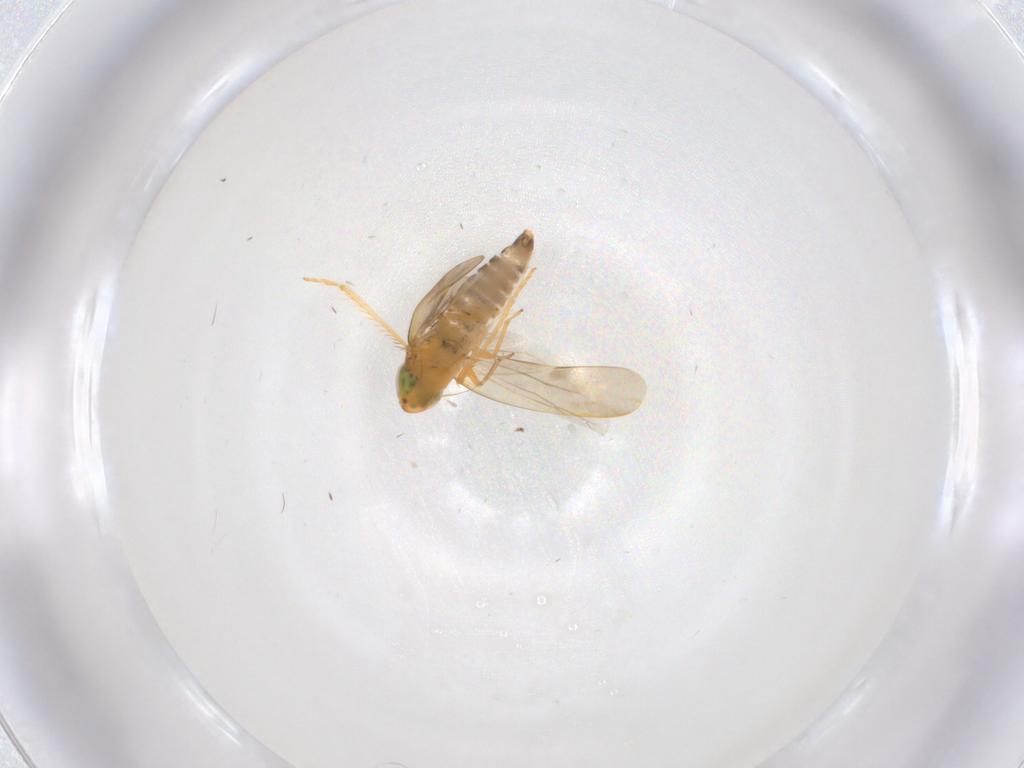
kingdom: Animalia
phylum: Arthropoda
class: Insecta
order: Hemiptera
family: Cicadellidae
